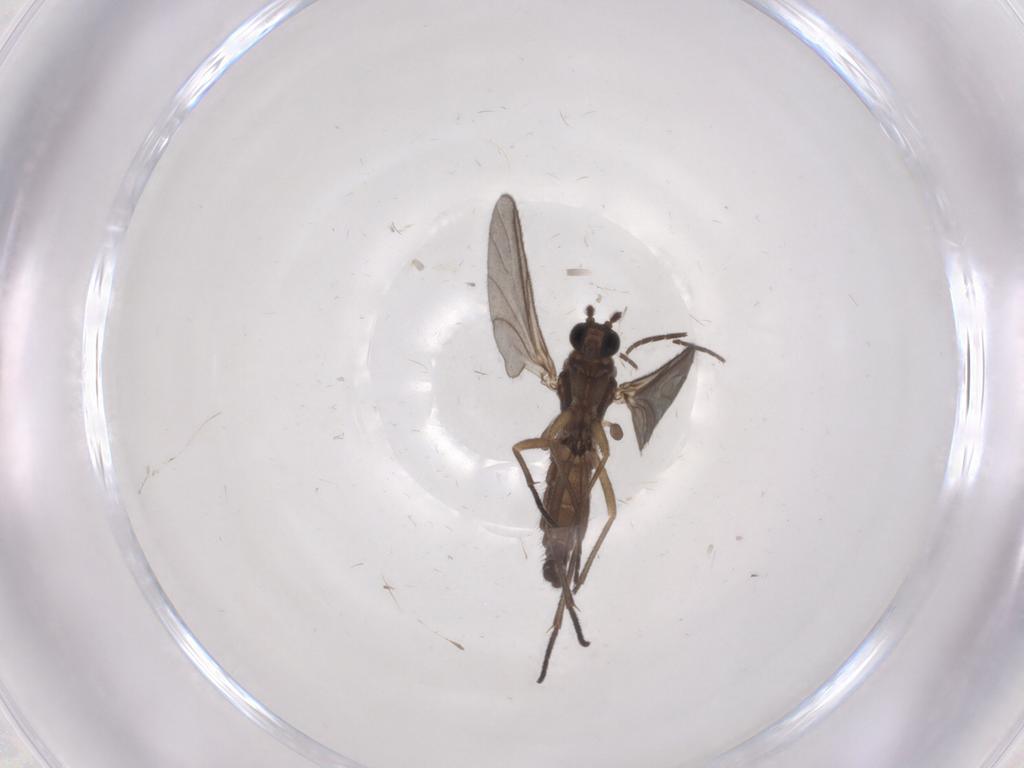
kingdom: Animalia
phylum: Arthropoda
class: Insecta
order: Diptera
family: Sciaridae
